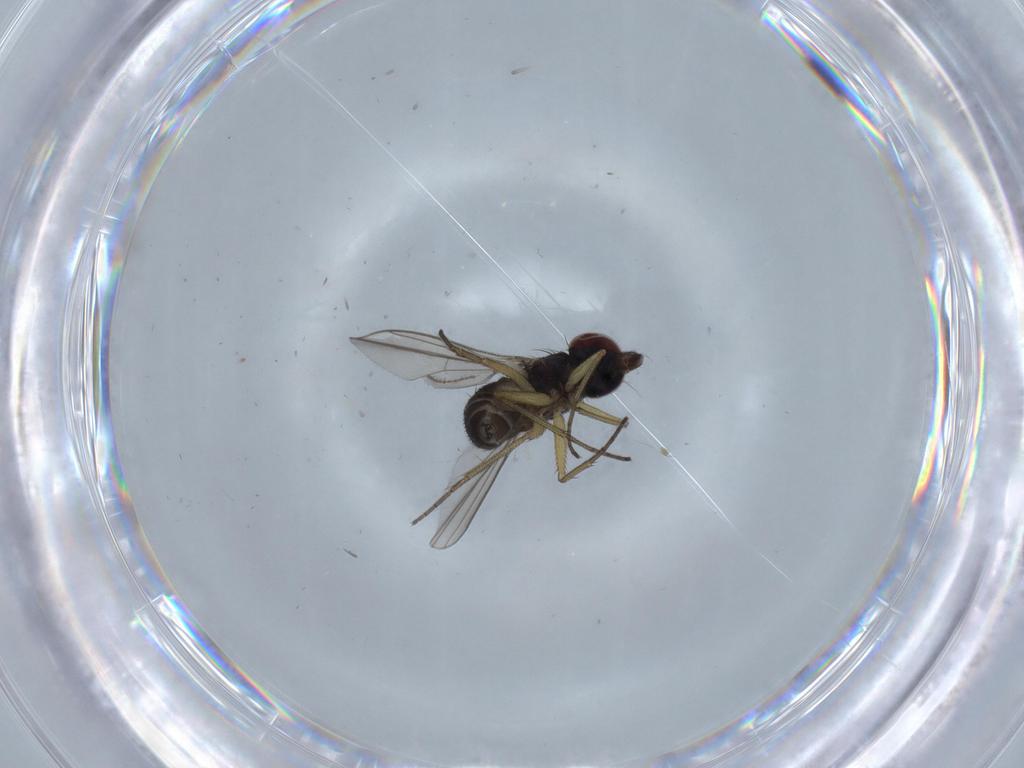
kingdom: Animalia
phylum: Arthropoda
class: Insecta
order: Diptera
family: Dolichopodidae
